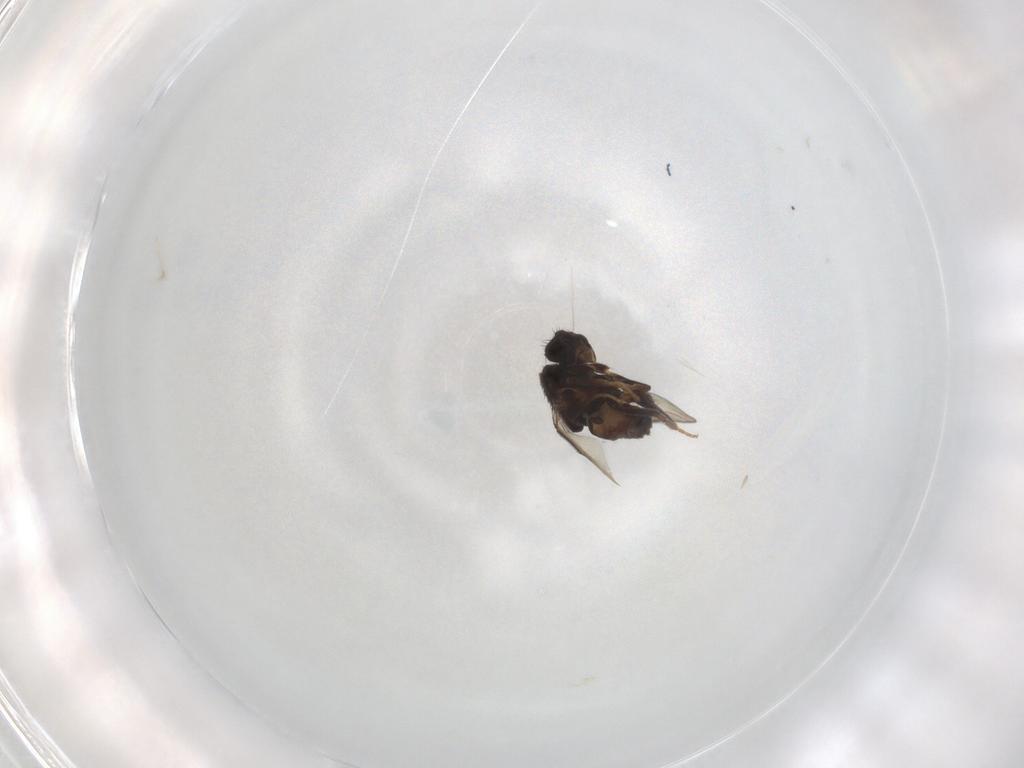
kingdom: Animalia
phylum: Arthropoda
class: Insecta
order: Diptera
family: Sphaeroceridae
